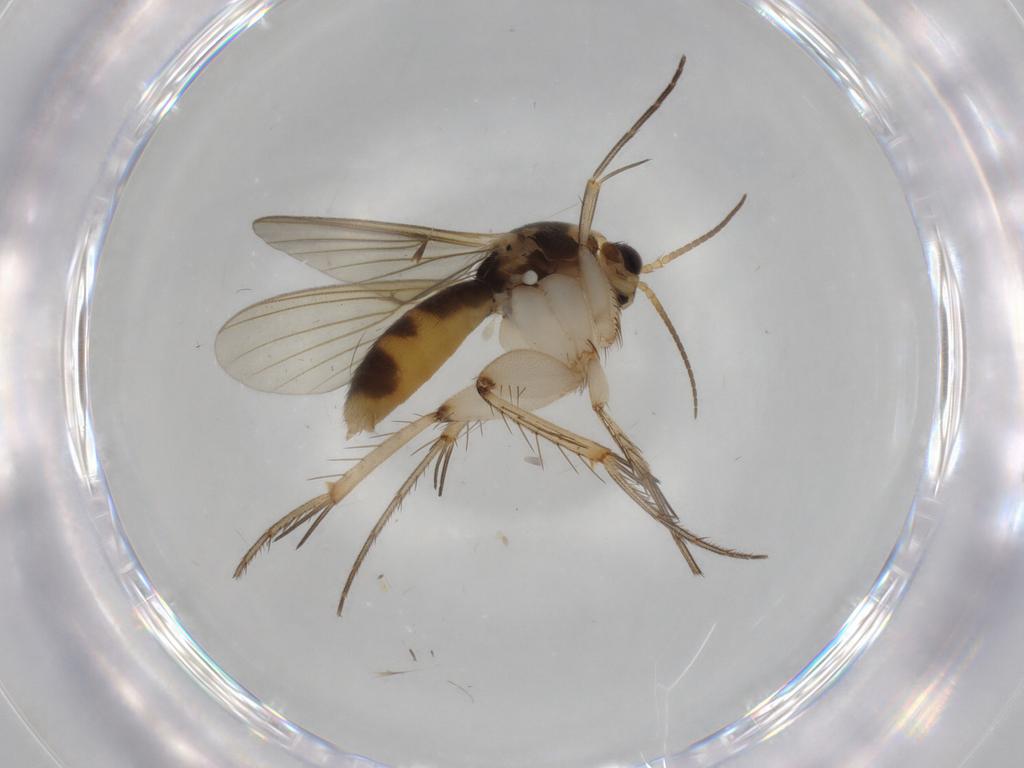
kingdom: Animalia
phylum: Arthropoda
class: Insecta
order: Diptera
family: Mycetophilidae
